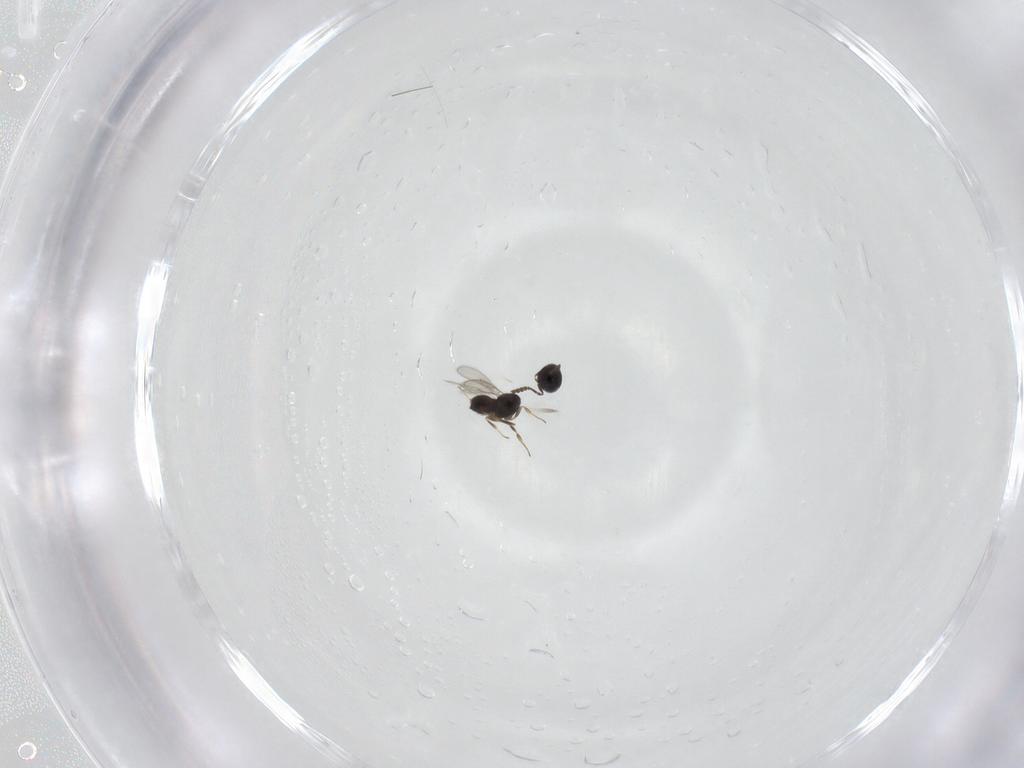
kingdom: Animalia
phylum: Arthropoda
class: Insecta
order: Hymenoptera
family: Scelionidae
